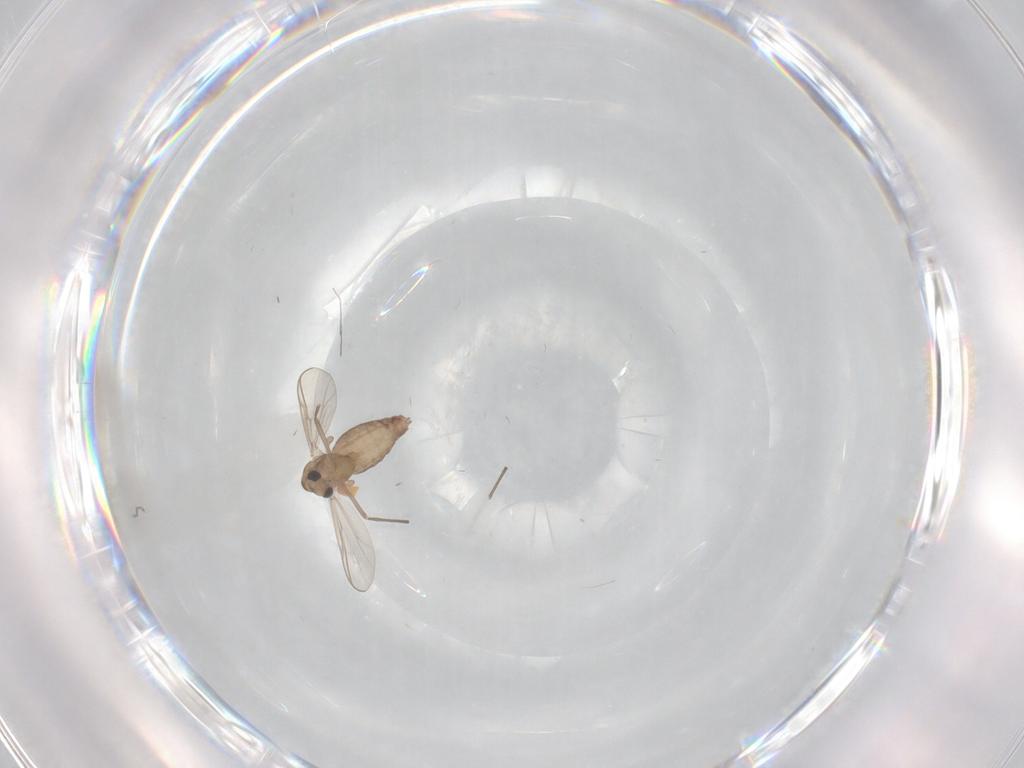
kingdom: Animalia
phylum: Arthropoda
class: Insecta
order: Diptera
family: Chironomidae
